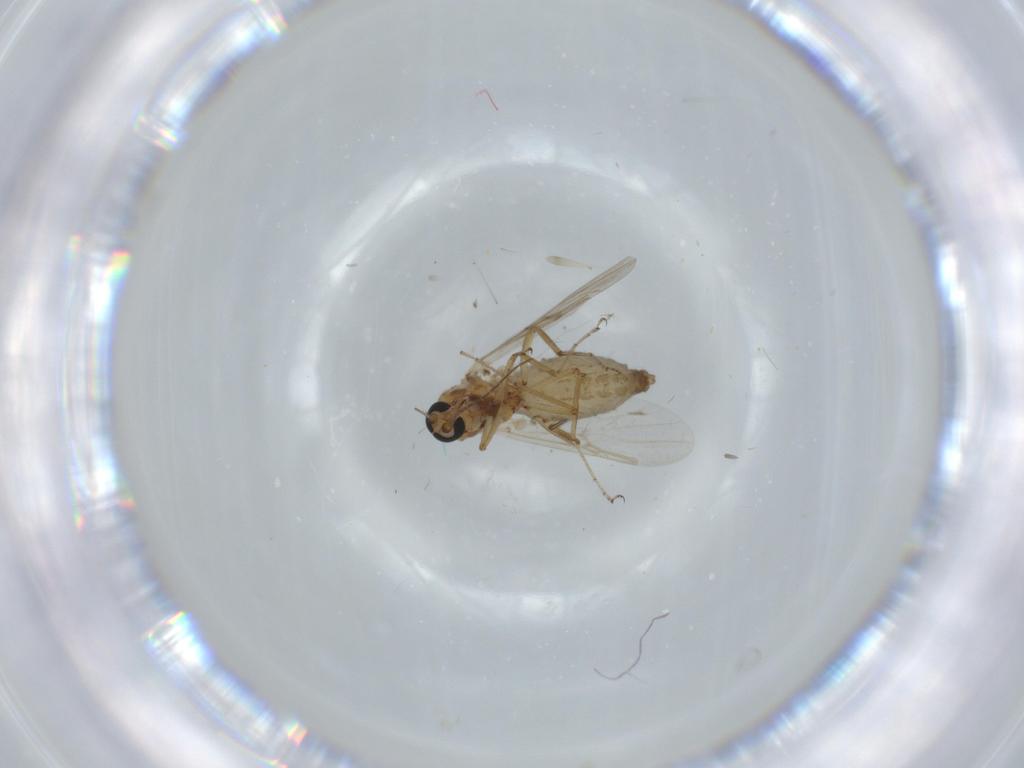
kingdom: Animalia
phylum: Arthropoda
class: Insecta
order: Diptera
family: Ceratopogonidae
